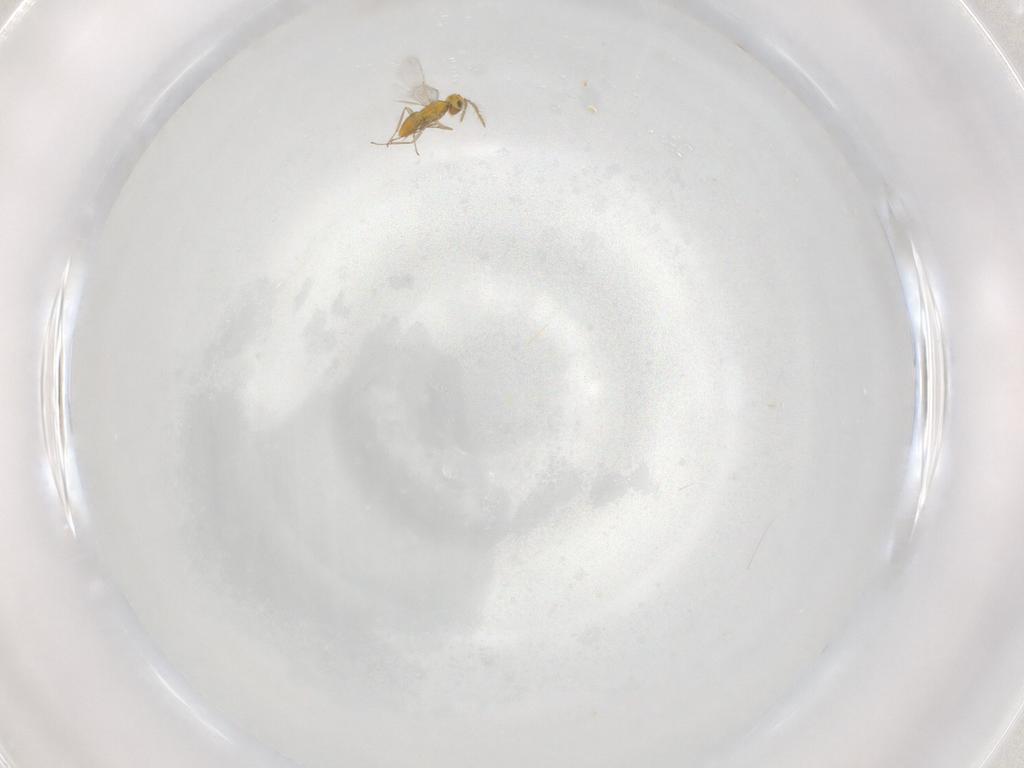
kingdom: Animalia
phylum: Arthropoda
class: Insecta
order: Hymenoptera
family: Aphelinidae
